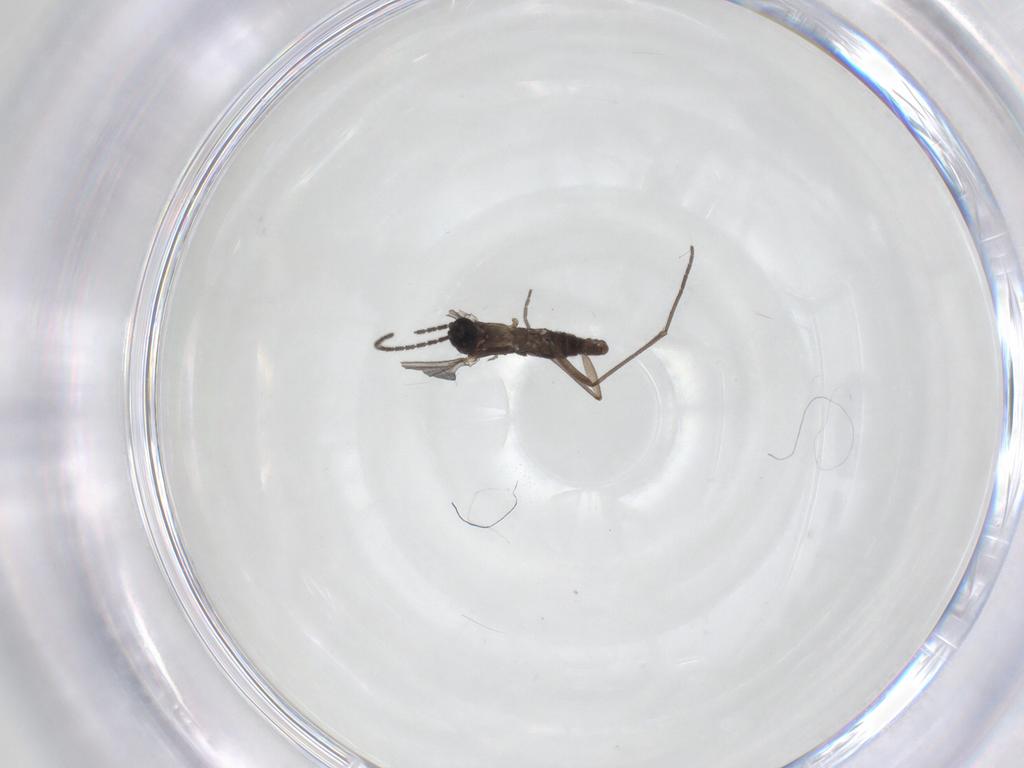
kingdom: Animalia
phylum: Arthropoda
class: Insecta
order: Diptera
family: Sciaridae
